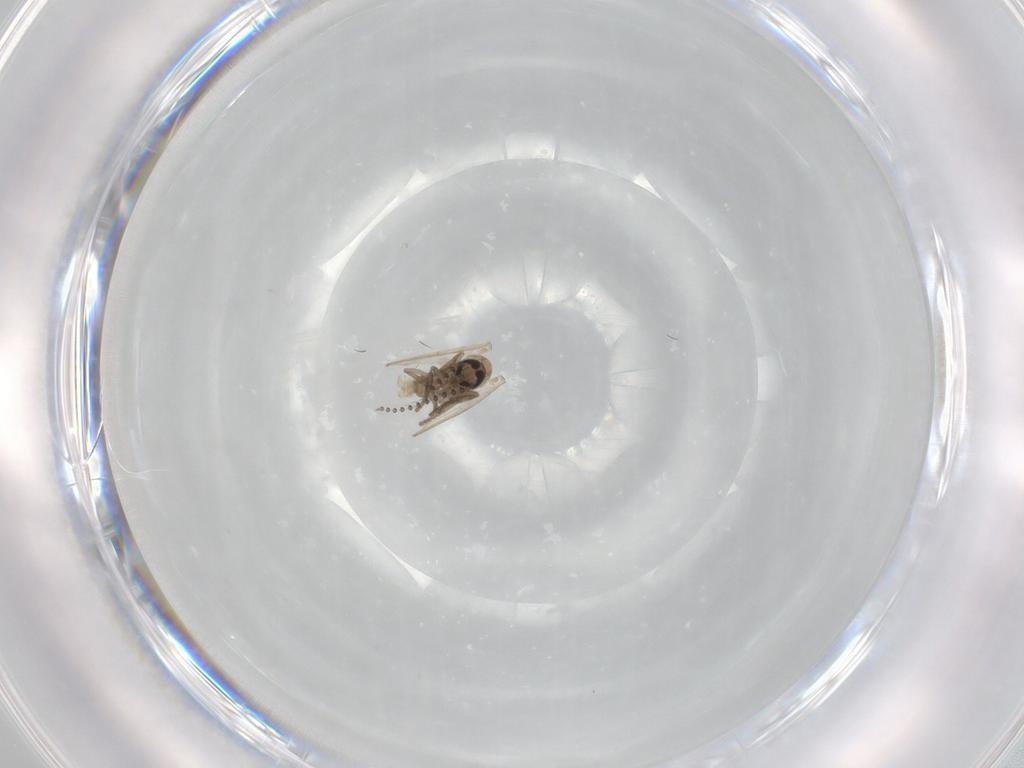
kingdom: Animalia
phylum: Arthropoda
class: Insecta
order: Diptera
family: Psychodidae
